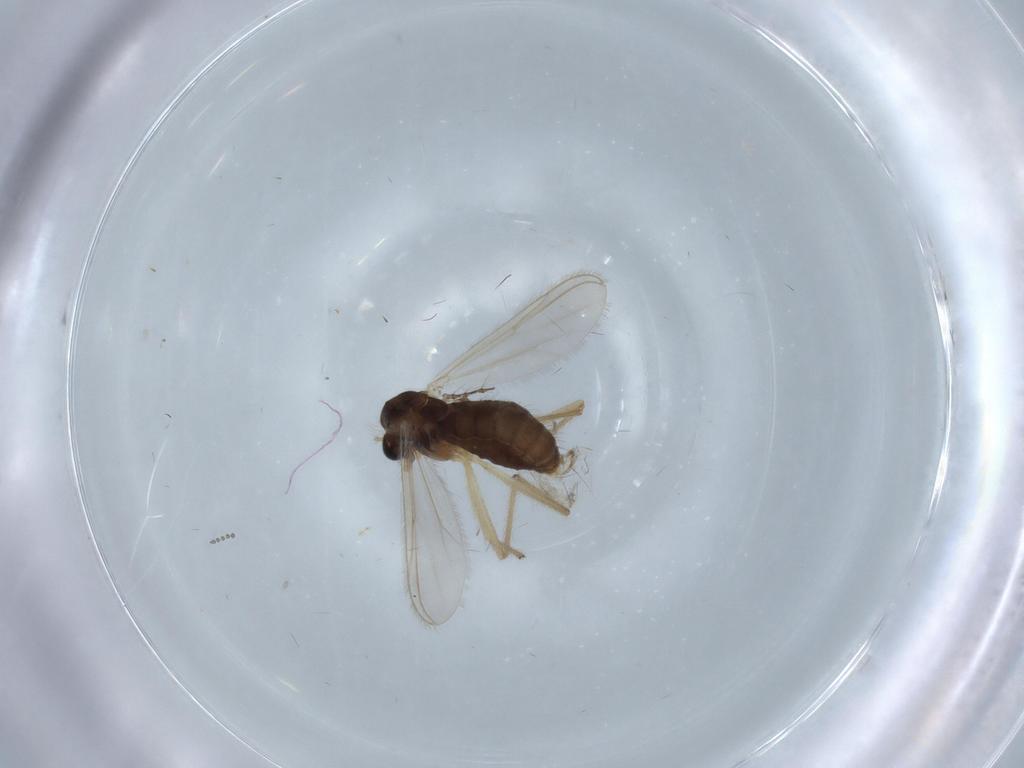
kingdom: Animalia
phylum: Arthropoda
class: Insecta
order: Diptera
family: Chironomidae
